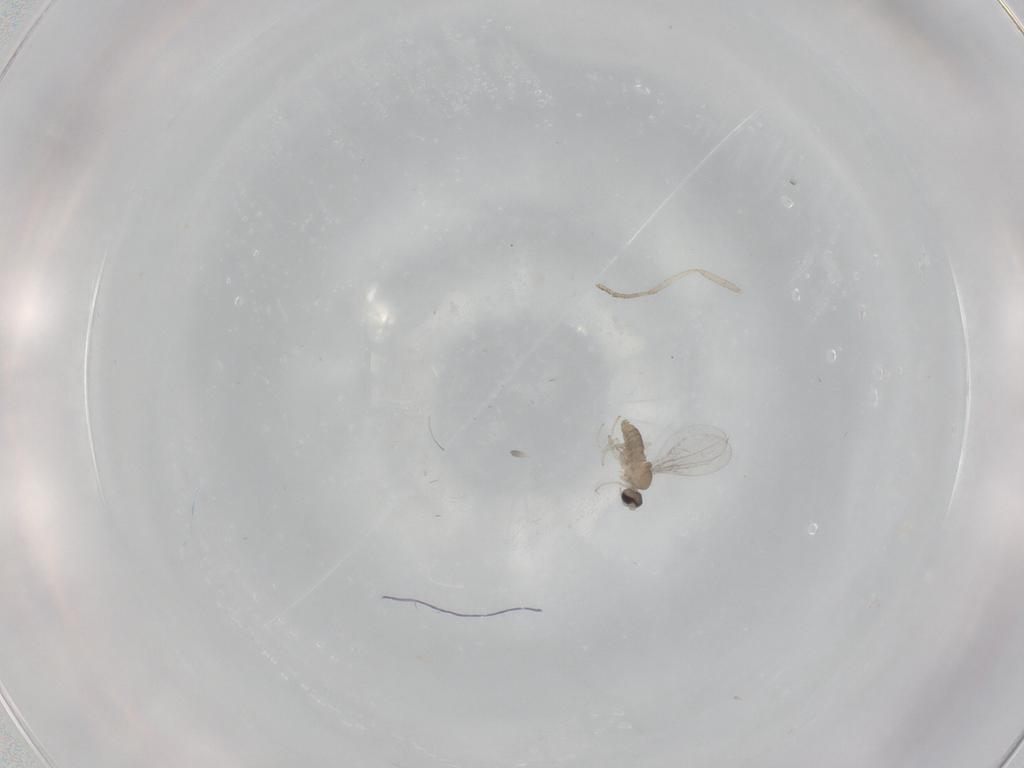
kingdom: Animalia
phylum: Arthropoda
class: Insecta
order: Diptera
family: Cecidomyiidae
